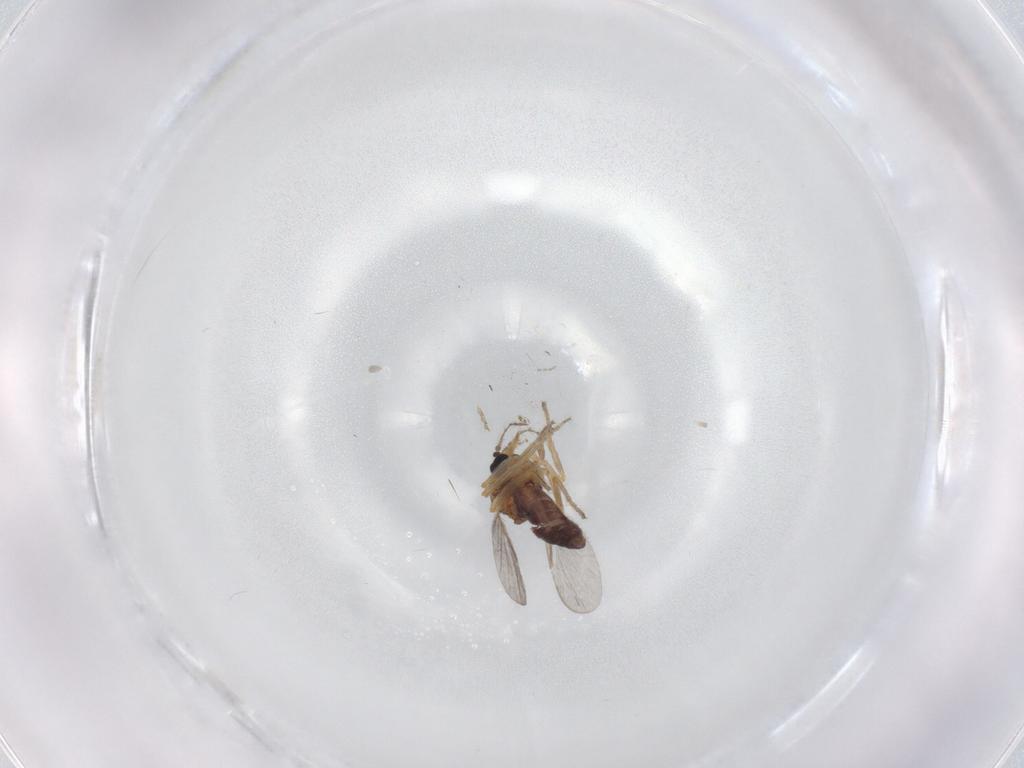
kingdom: Animalia
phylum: Arthropoda
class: Insecta
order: Diptera
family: Ceratopogonidae
